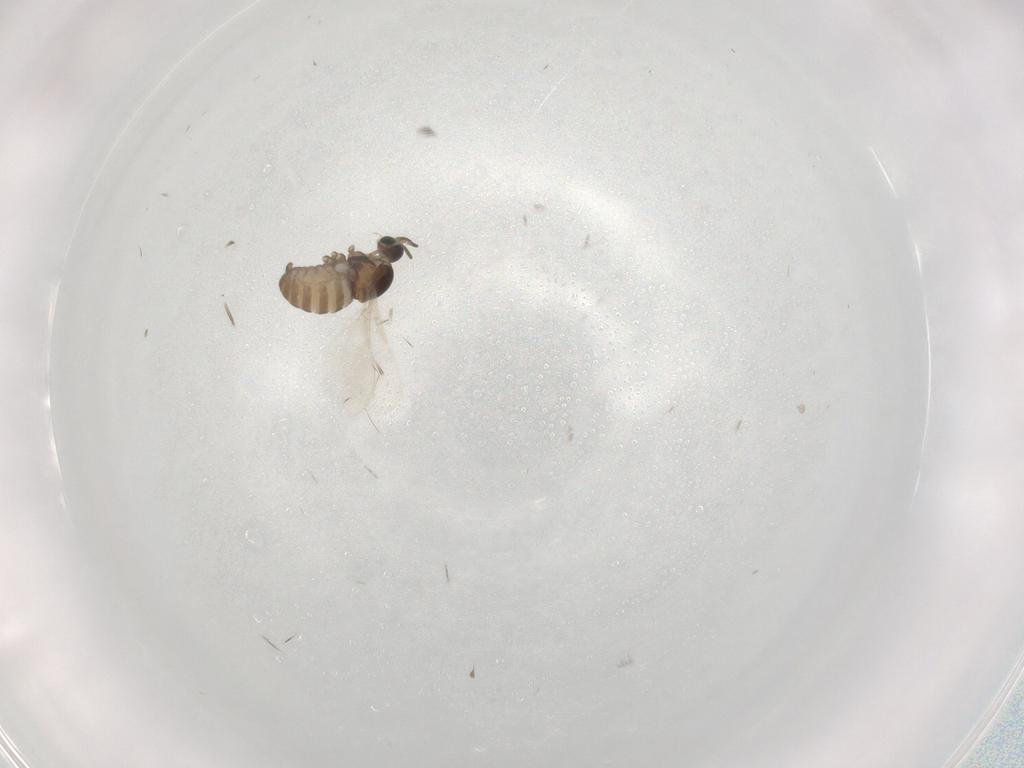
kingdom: Animalia
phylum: Arthropoda
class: Insecta
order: Diptera
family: Cecidomyiidae
